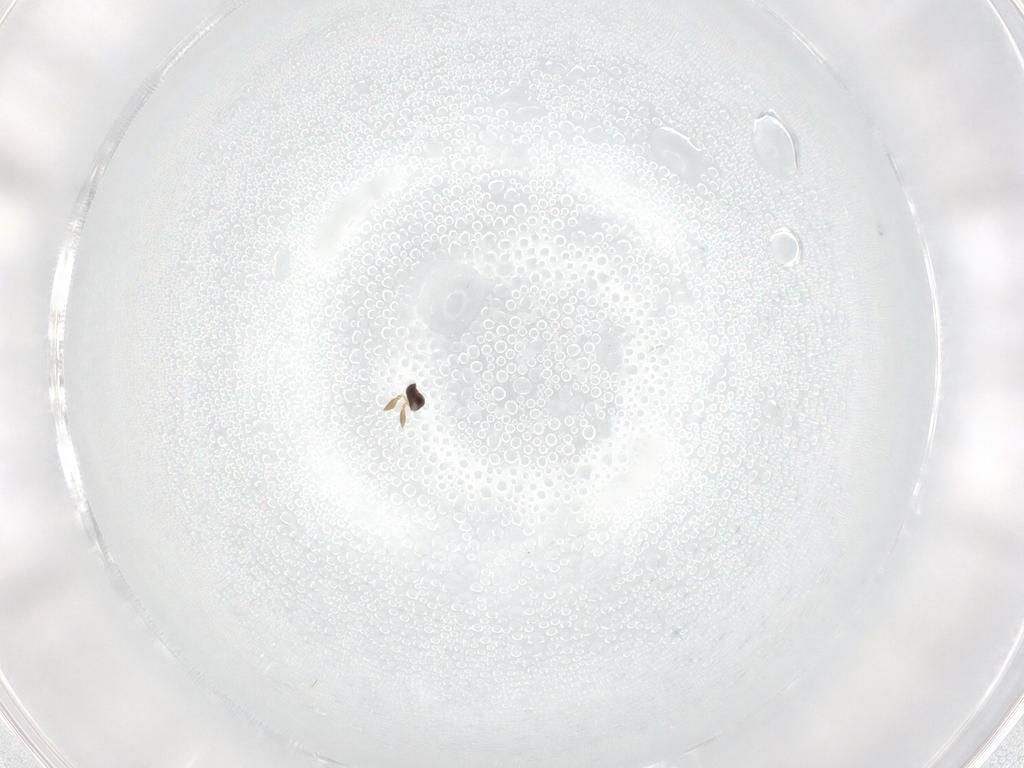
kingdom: Animalia
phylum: Arthropoda
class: Insecta
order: Hymenoptera
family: Encyrtidae
